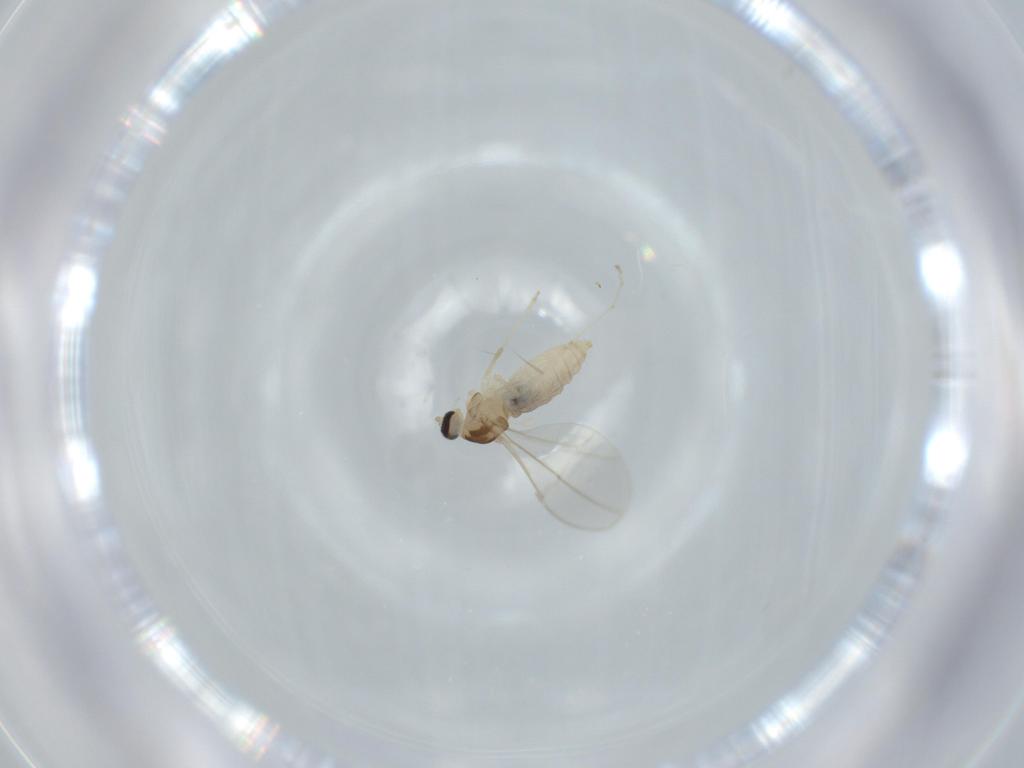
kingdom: Animalia
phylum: Arthropoda
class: Insecta
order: Diptera
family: Cecidomyiidae
